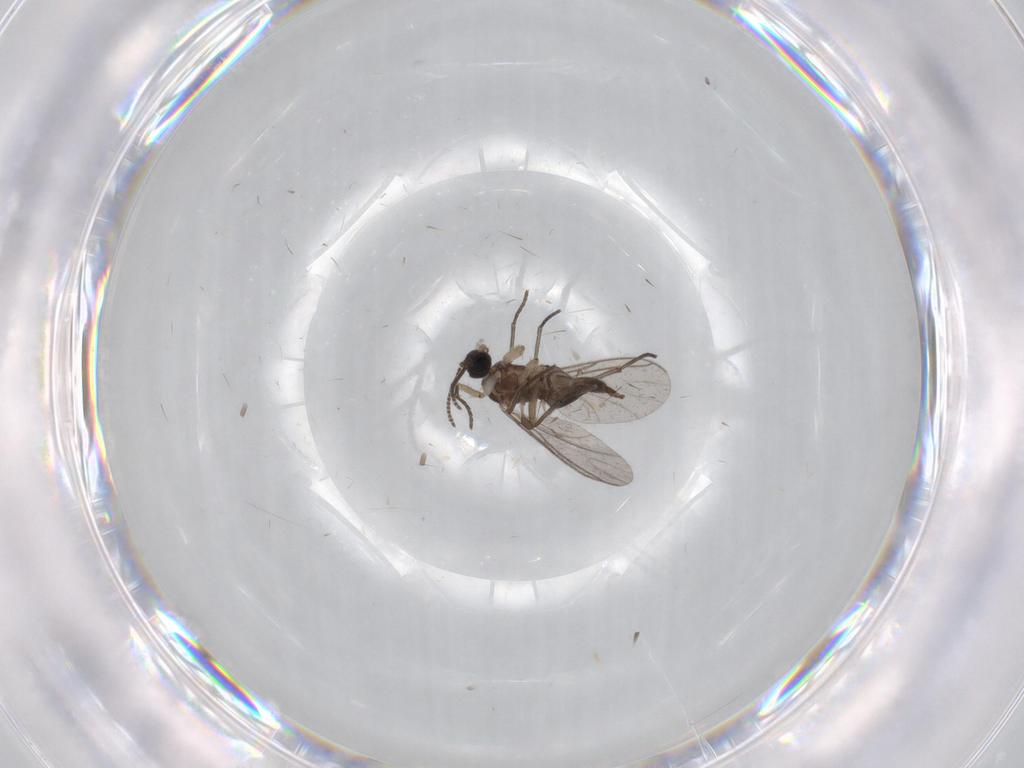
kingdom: Animalia
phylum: Arthropoda
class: Insecta
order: Diptera
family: Sciaridae
